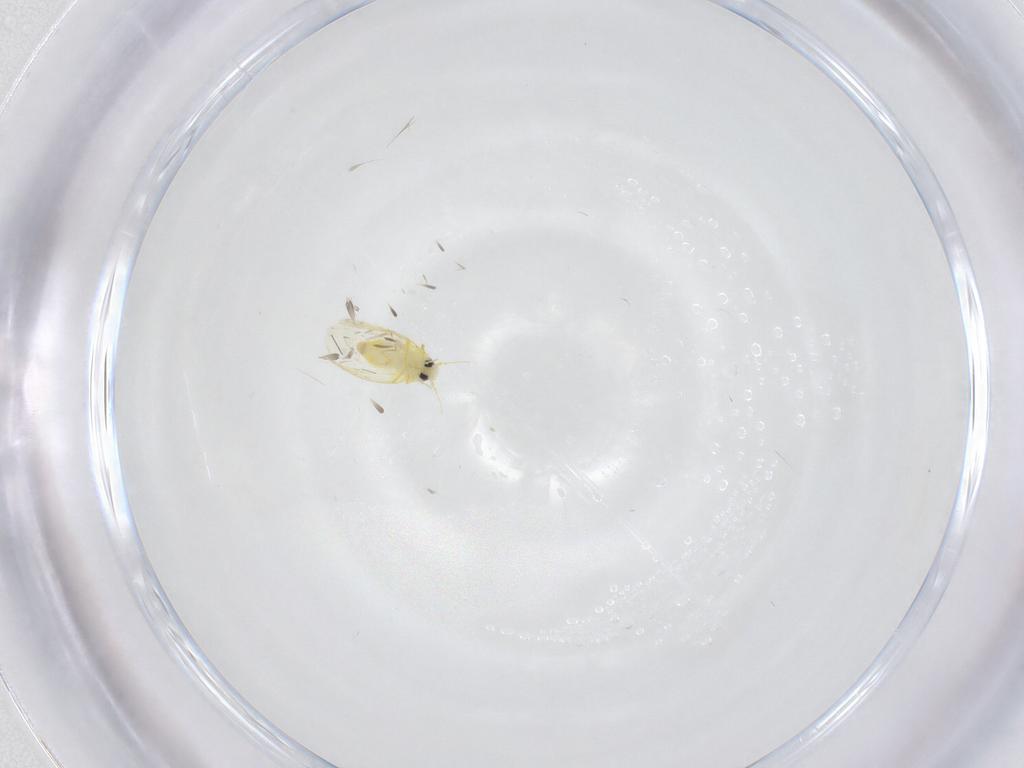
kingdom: Animalia
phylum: Arthropoda
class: Insecta
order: Diptera
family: Cecidomyiidae
